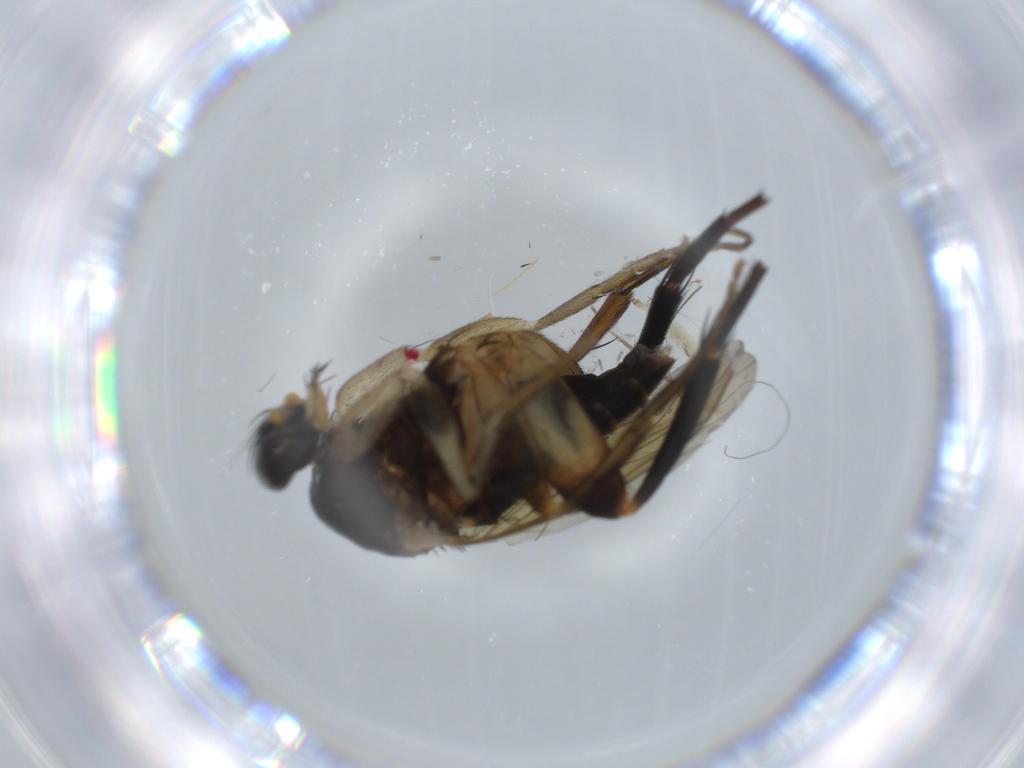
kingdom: Animalia
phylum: Arthropoda
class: Insecta
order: Diptera
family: Phoridae
